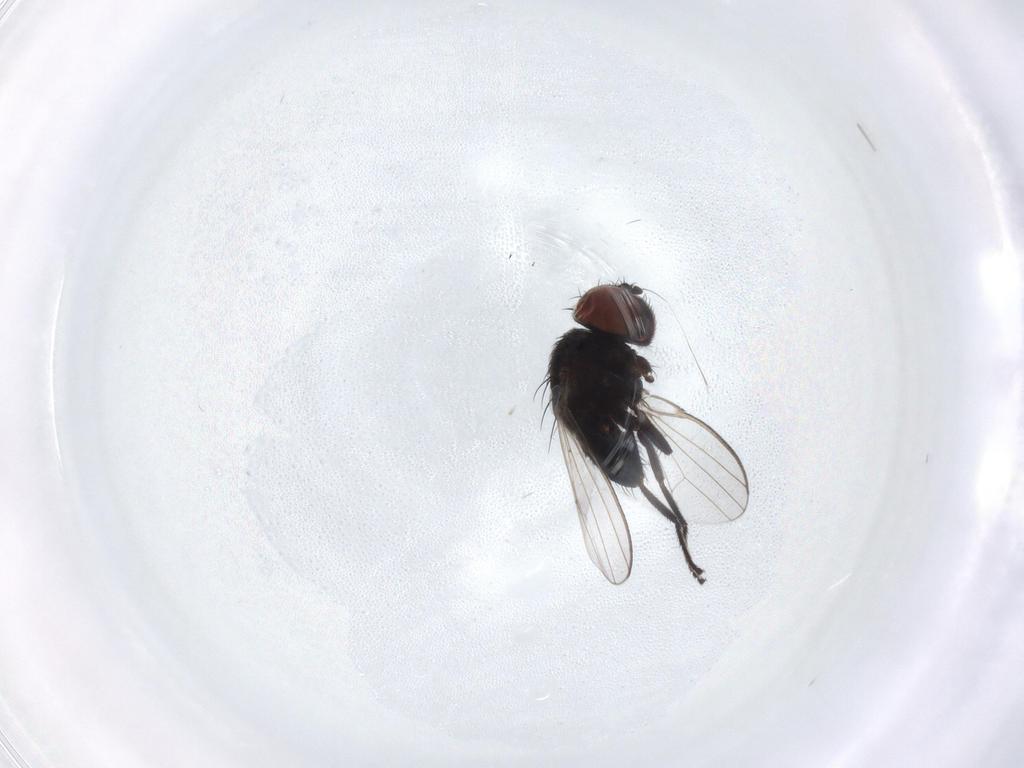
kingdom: Animalia
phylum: Arthropoda
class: Insecta
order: Diptera
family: Milichiidae
